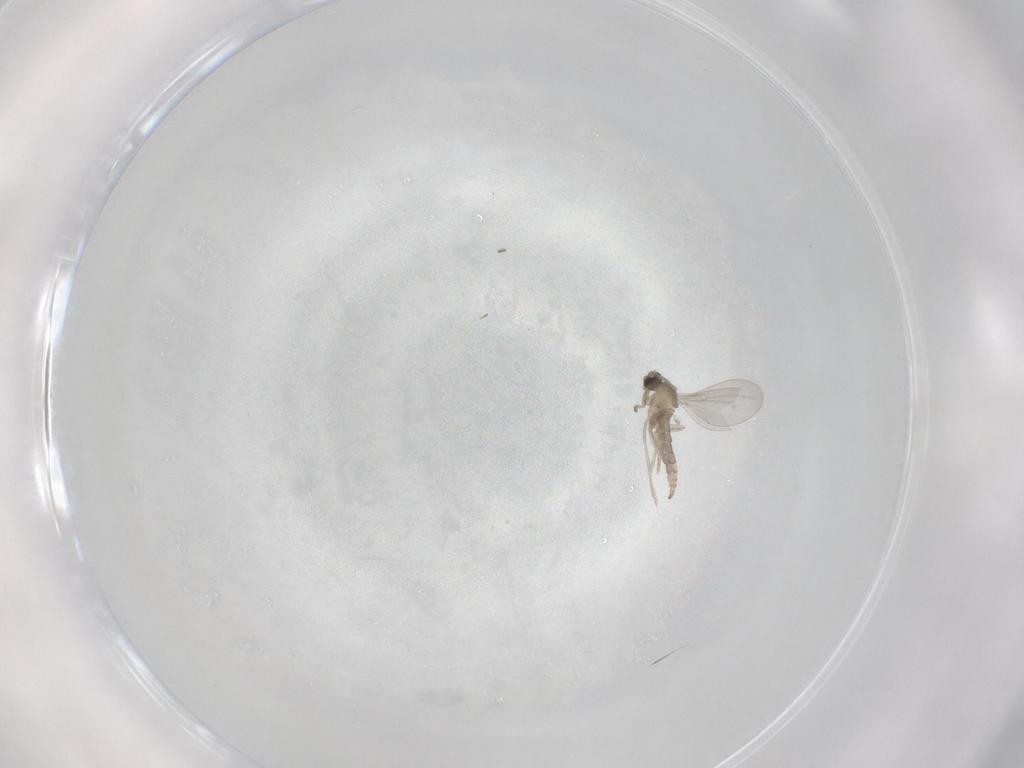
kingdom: Animalia
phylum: Arthropoda
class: Insecta
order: Diptera
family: Cecidomyiidae
